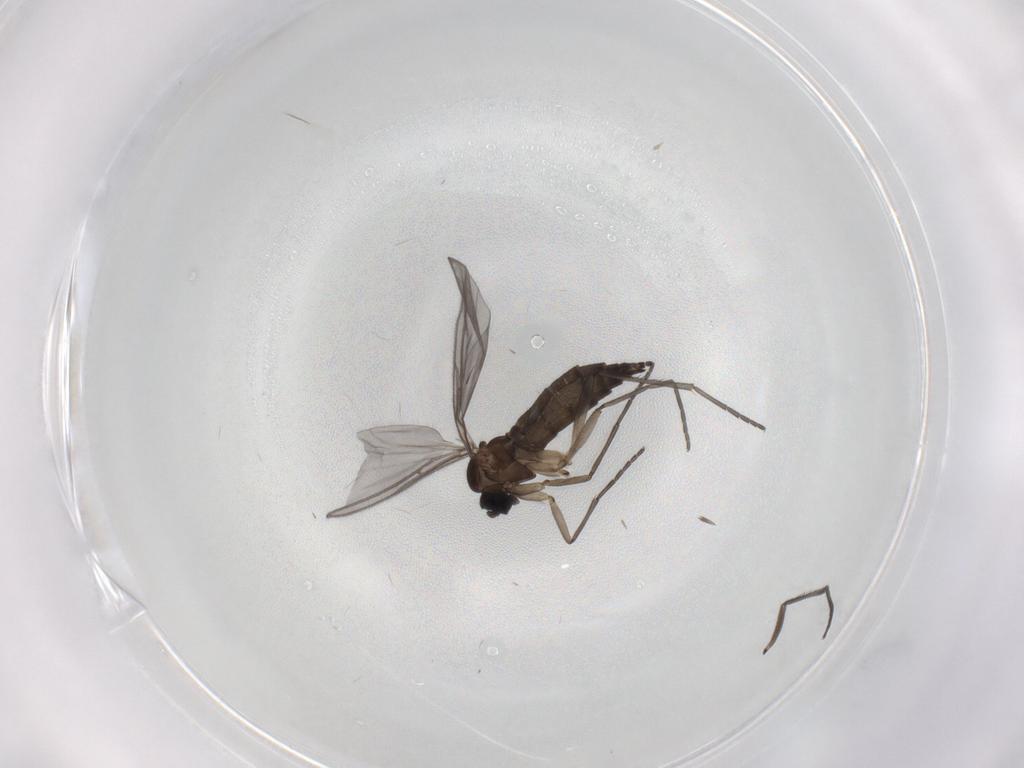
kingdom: Animalia
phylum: Arthropoda
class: Insecta
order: Diptera
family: Sciaridae
